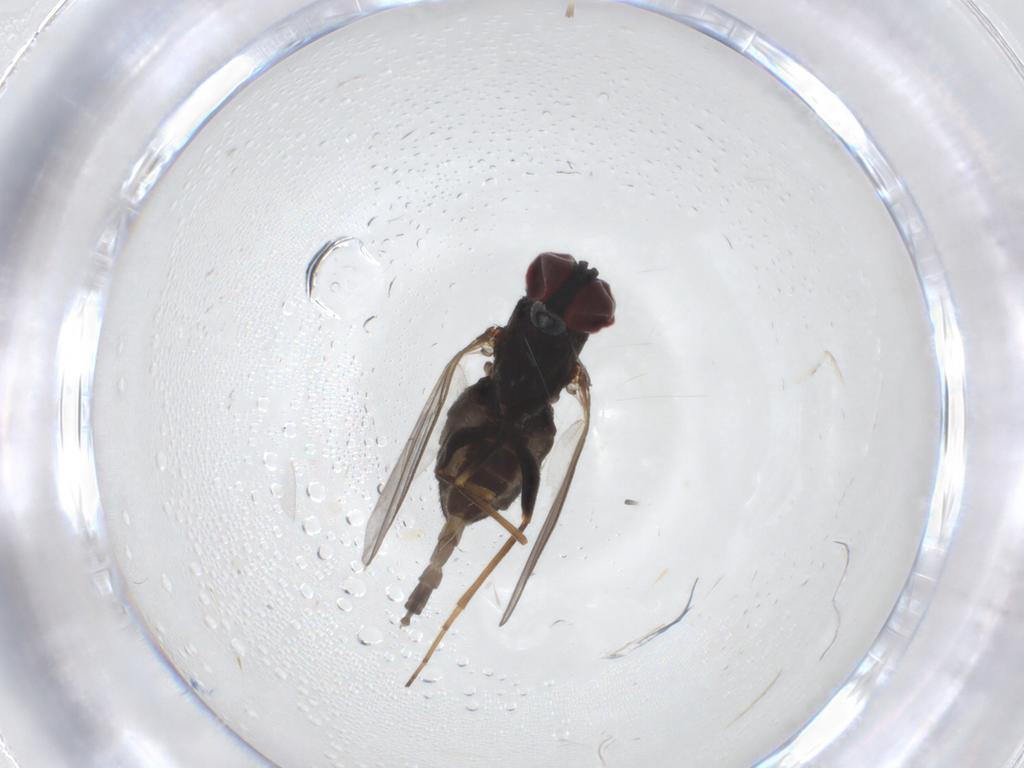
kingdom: Animalia
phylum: Arthropoda
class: Insecta
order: Diptera
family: Dolichopodidae
